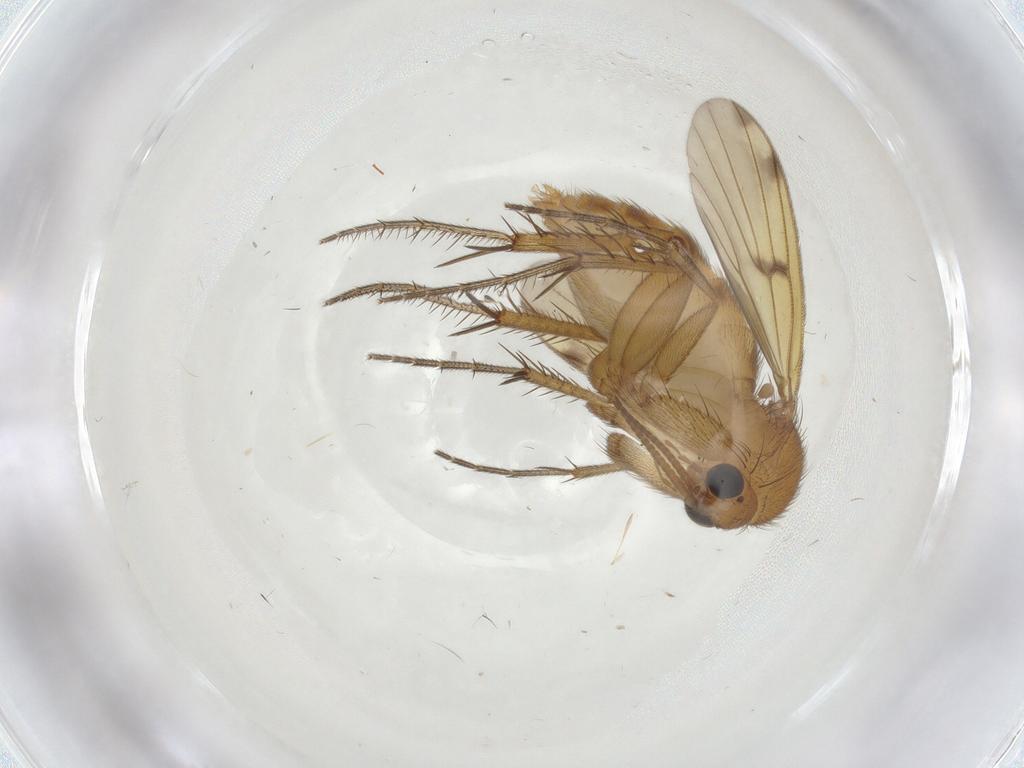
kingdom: Animalia
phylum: Arthropoda
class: Insecta
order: Diptera
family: Mycetophilidae
